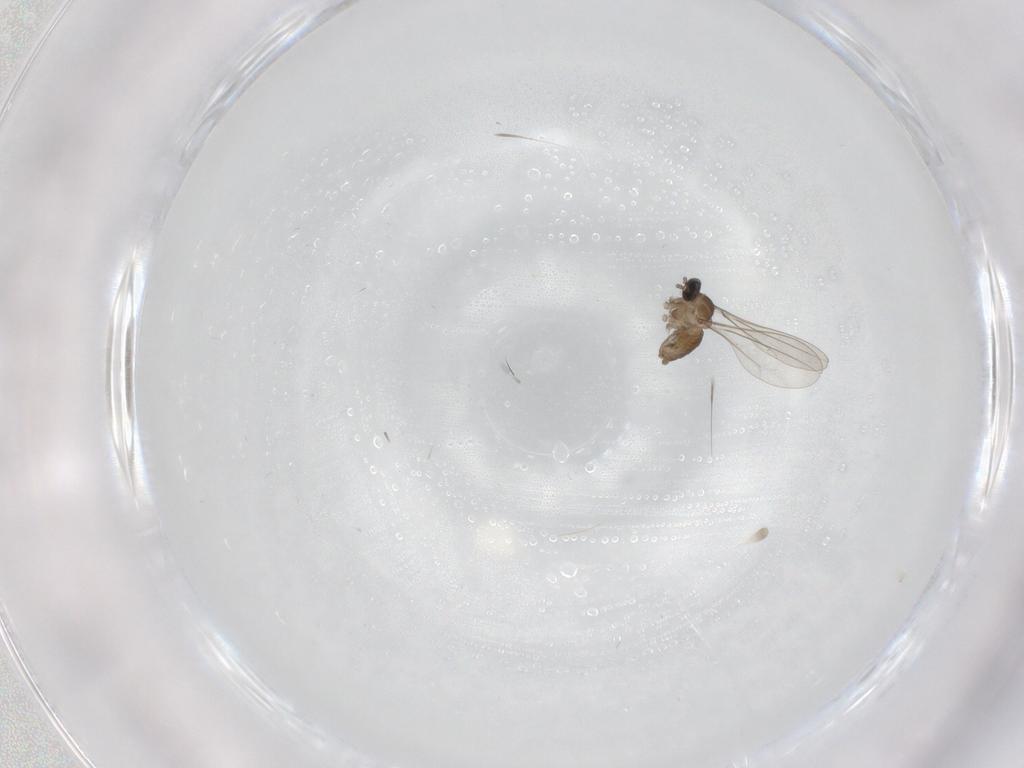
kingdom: Animalia
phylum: Arthropoda
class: Insecta
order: Diptera
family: Cecidomyiidae
